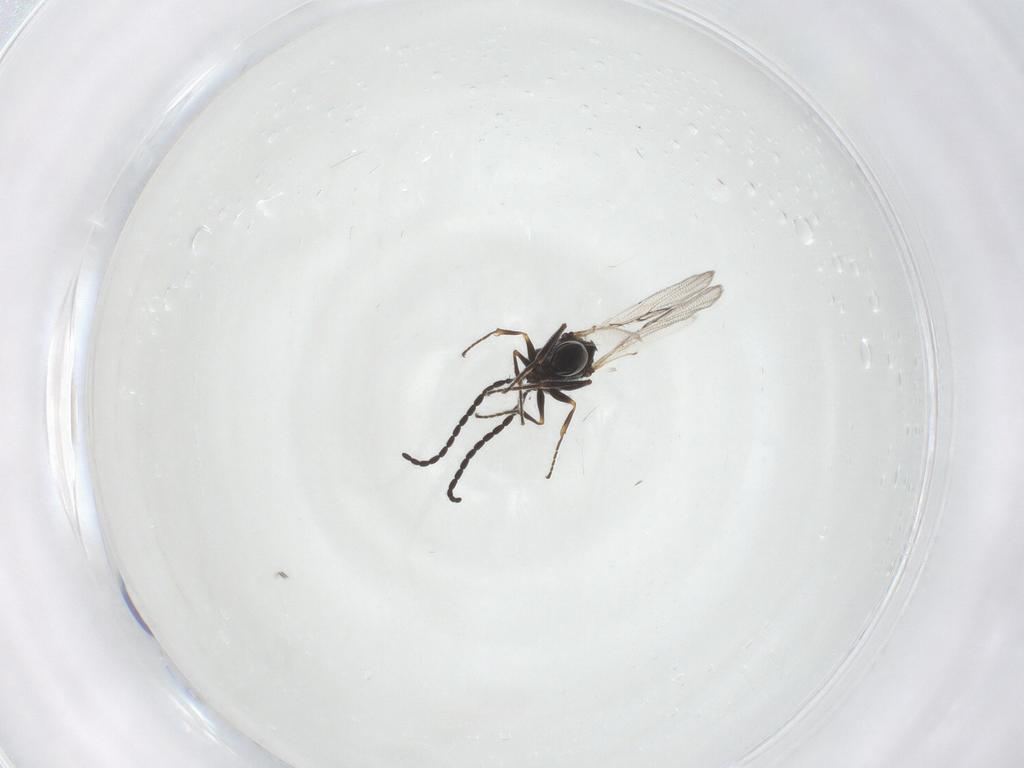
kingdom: Animalia
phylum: Arthropoda
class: Insecta
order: Hymenoptera
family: Figitidae
